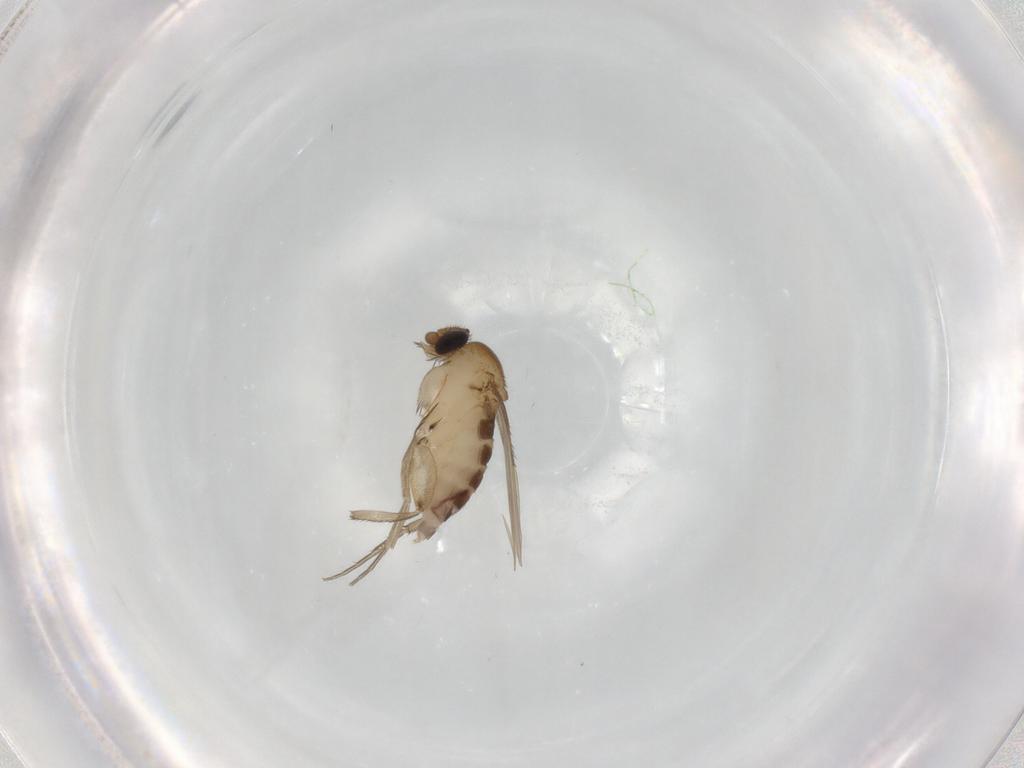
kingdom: Animalia
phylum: Arthropoda
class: Insecta
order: Diptera
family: Phoridae
